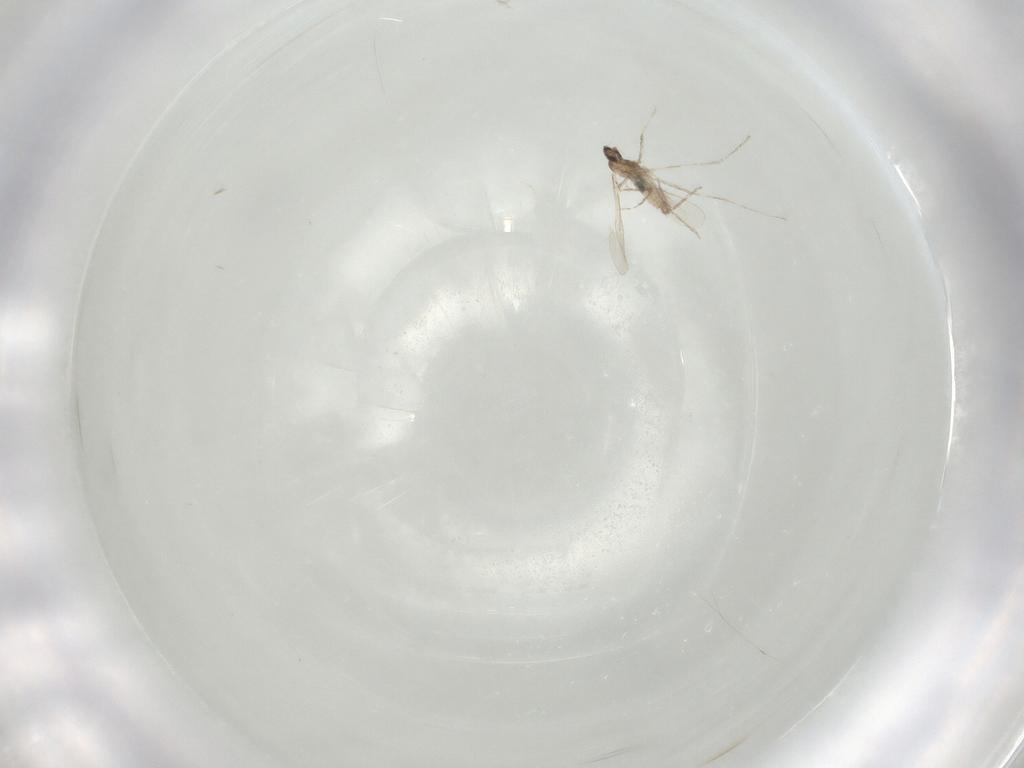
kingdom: Animalia
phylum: Arthropoda
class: Insecta
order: Diptera
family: Cecidomyiidae
